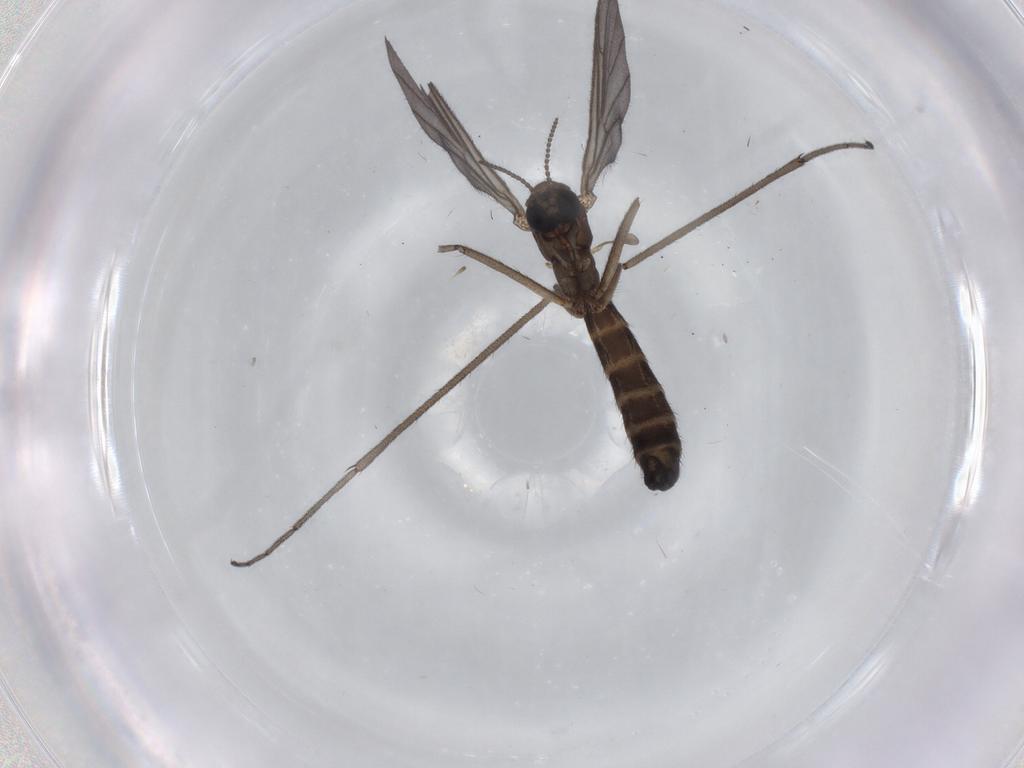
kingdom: Animalia
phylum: Arthropoda
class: Insecta
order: Diptera
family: Keroplatidae
